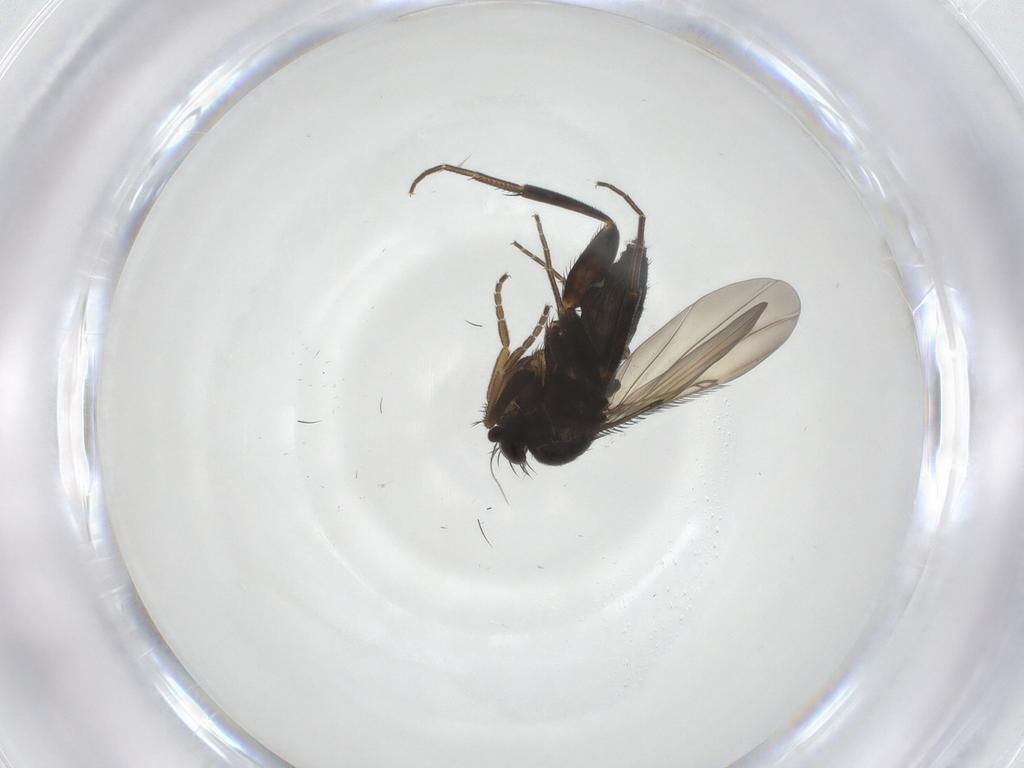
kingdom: Animalia
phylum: Arthropoda
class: Insecta
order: Diptera
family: Phoridae
